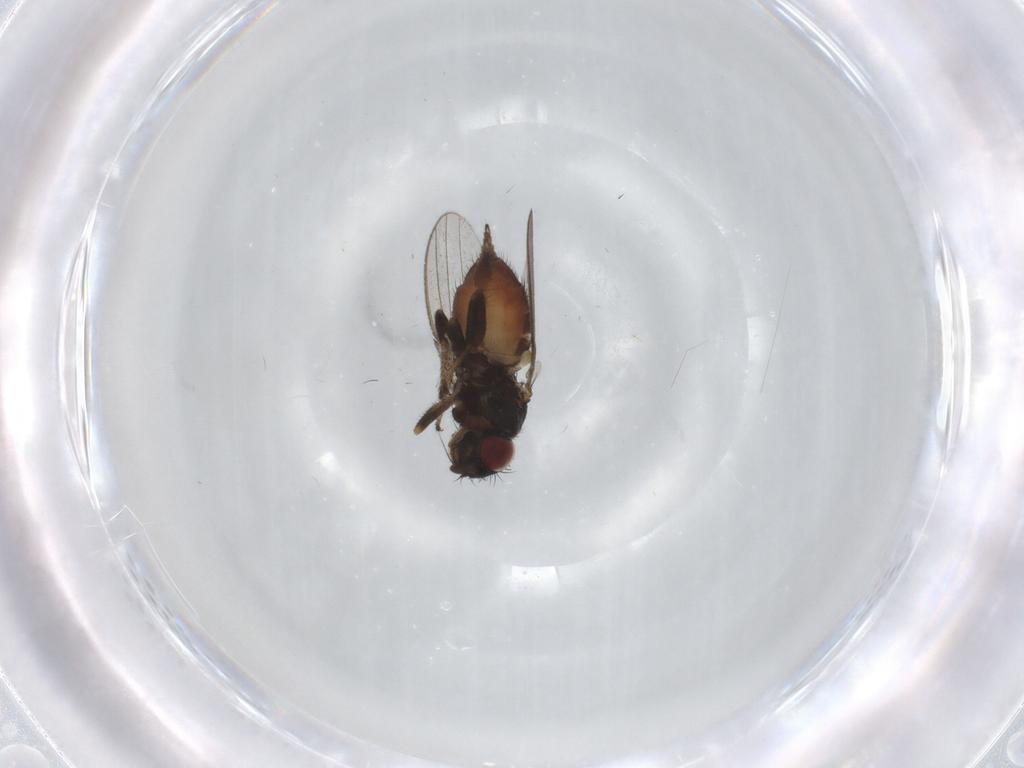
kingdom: Animalia
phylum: Arthropoda
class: Insecta
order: Diptera
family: Milichiidae
